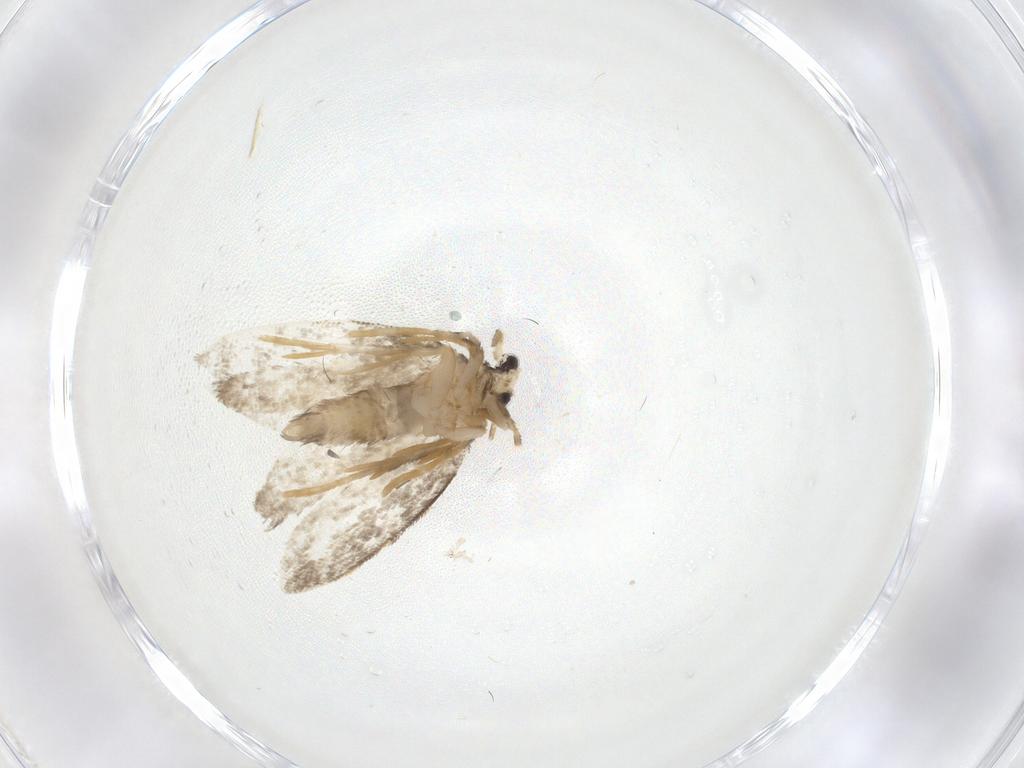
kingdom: Animalia
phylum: Arthropoda
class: Insecta
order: Lepidoptera
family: Psychidae
